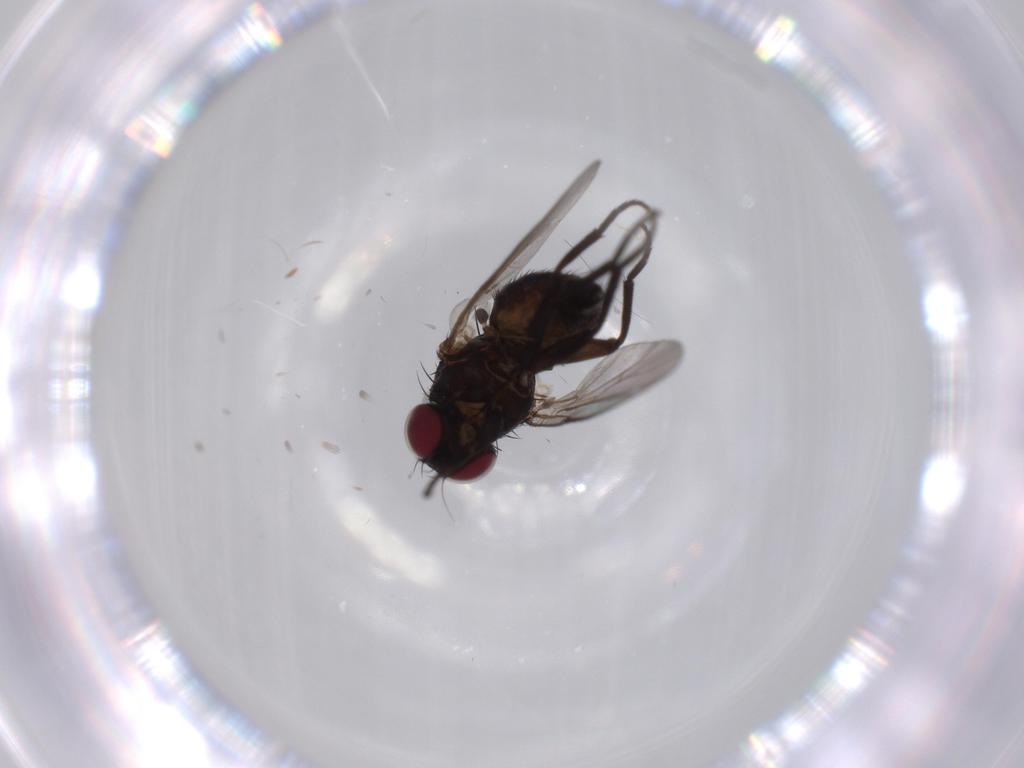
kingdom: Animalia
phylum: Arthropoda
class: Insecta
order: Diptera
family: Agromyzidae
